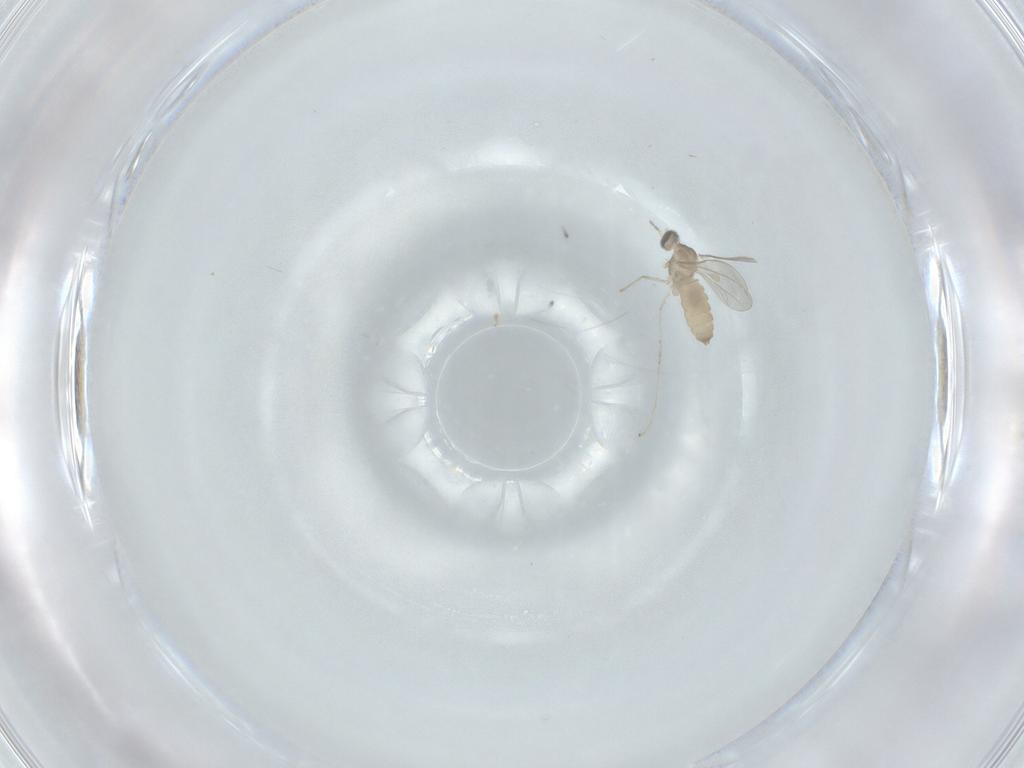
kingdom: Animalia
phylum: Arthropoda
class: Insecta
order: Diptera
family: Cecidomyiidae
